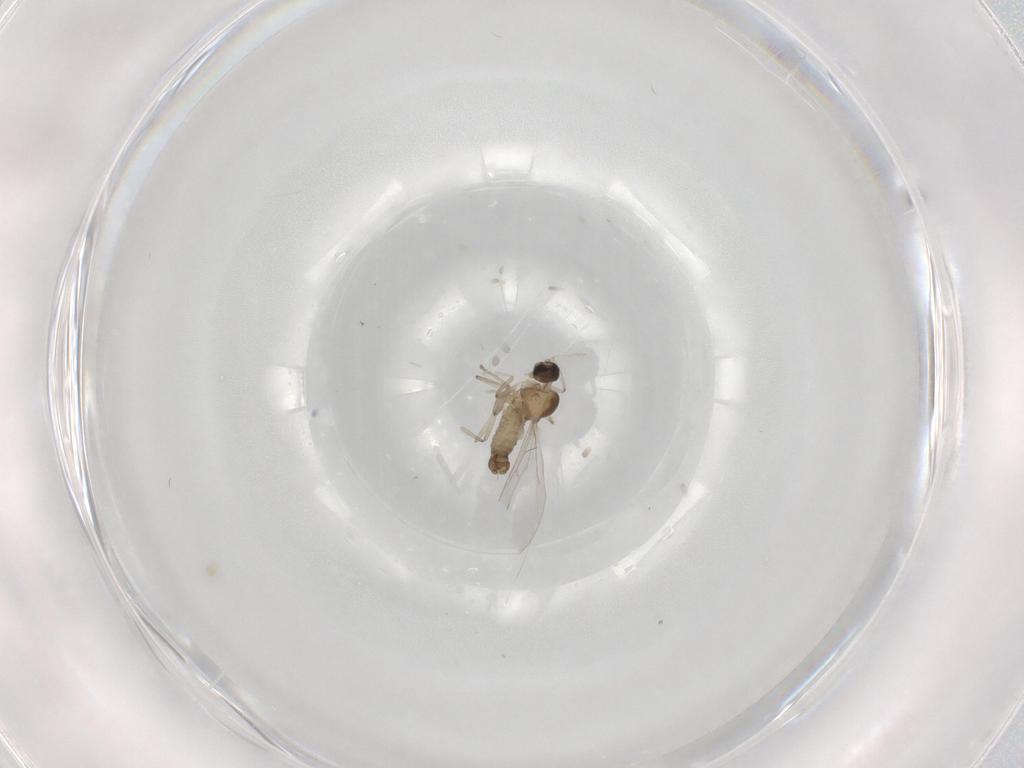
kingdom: Animalia
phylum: Arthropoda
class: Insecta
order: Diptera
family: Cecidomyiidae
